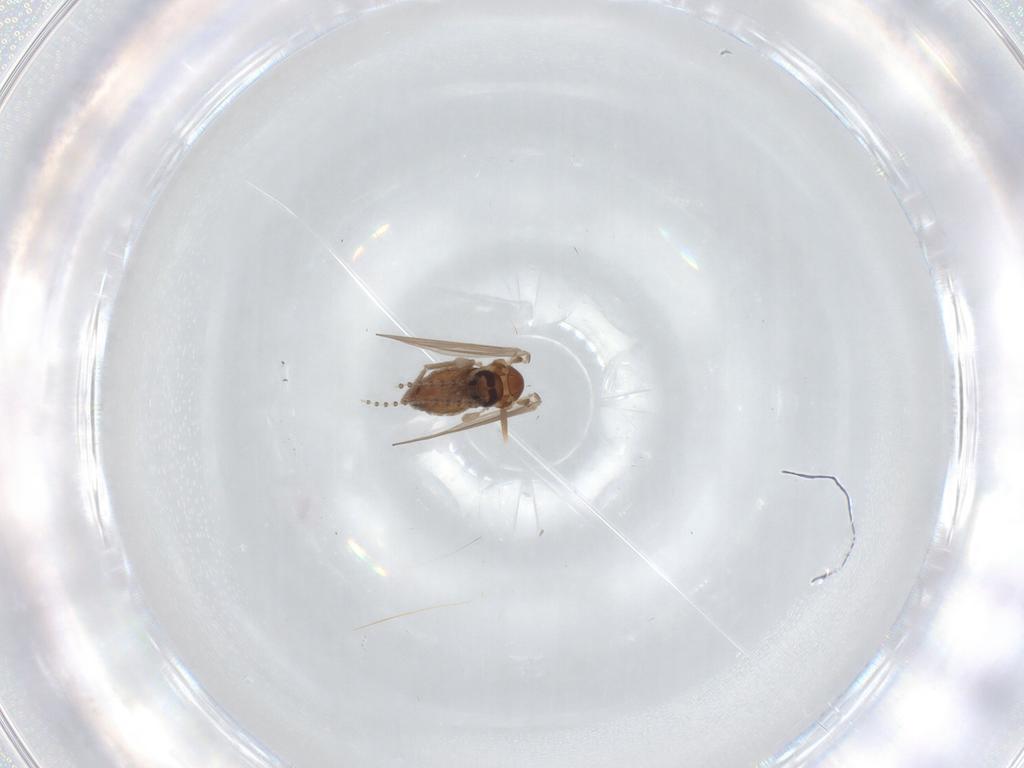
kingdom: Animalia
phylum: Arthropoda
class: Insecta
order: Diptera
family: Psychodidae
